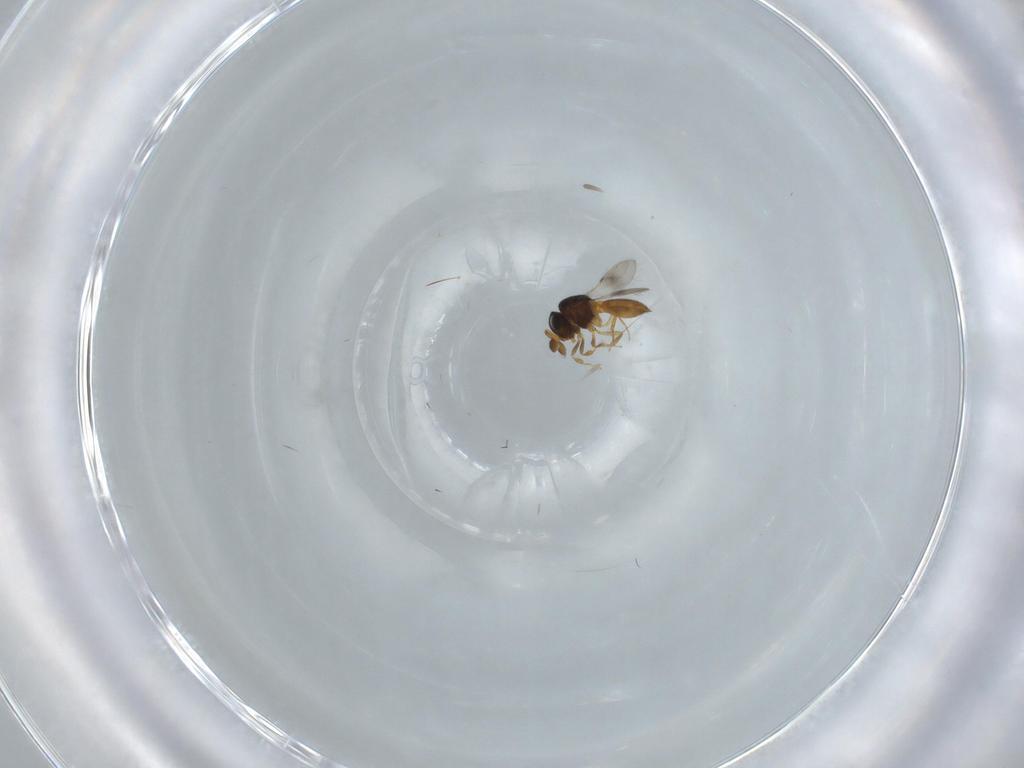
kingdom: Animalia
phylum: Arthropoda
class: Insecta
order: Hymenoptera
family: Scelionidae
